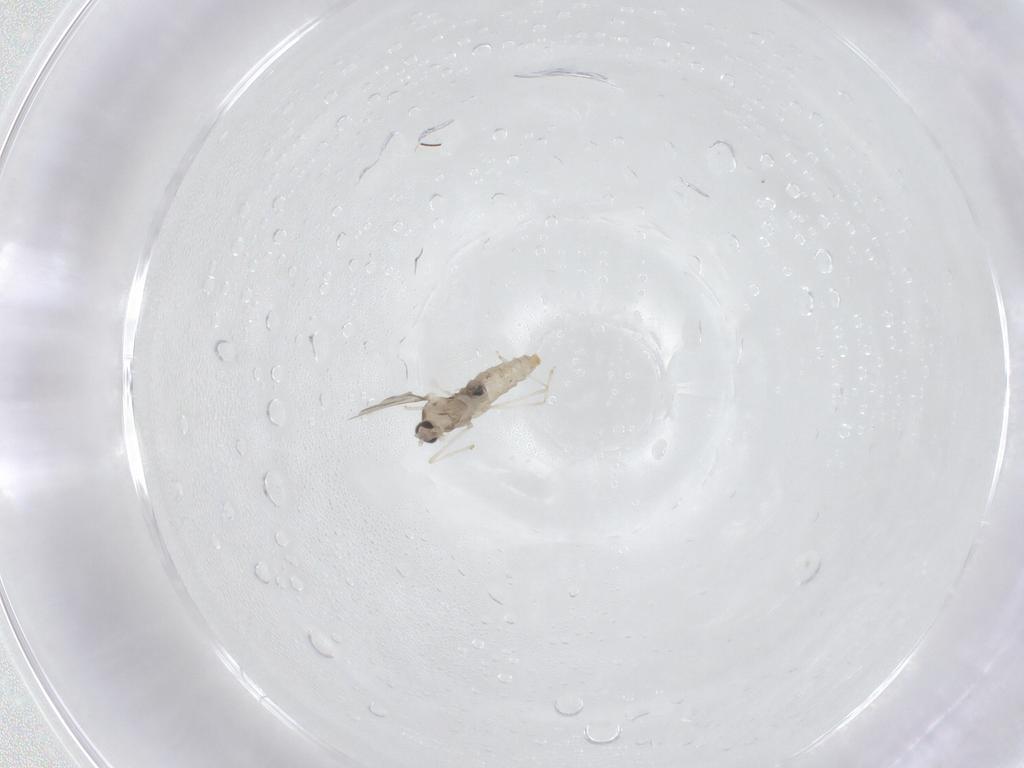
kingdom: Animalia
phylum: Arthropoda
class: Insecta
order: Diptera
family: Cecidomyiidae
